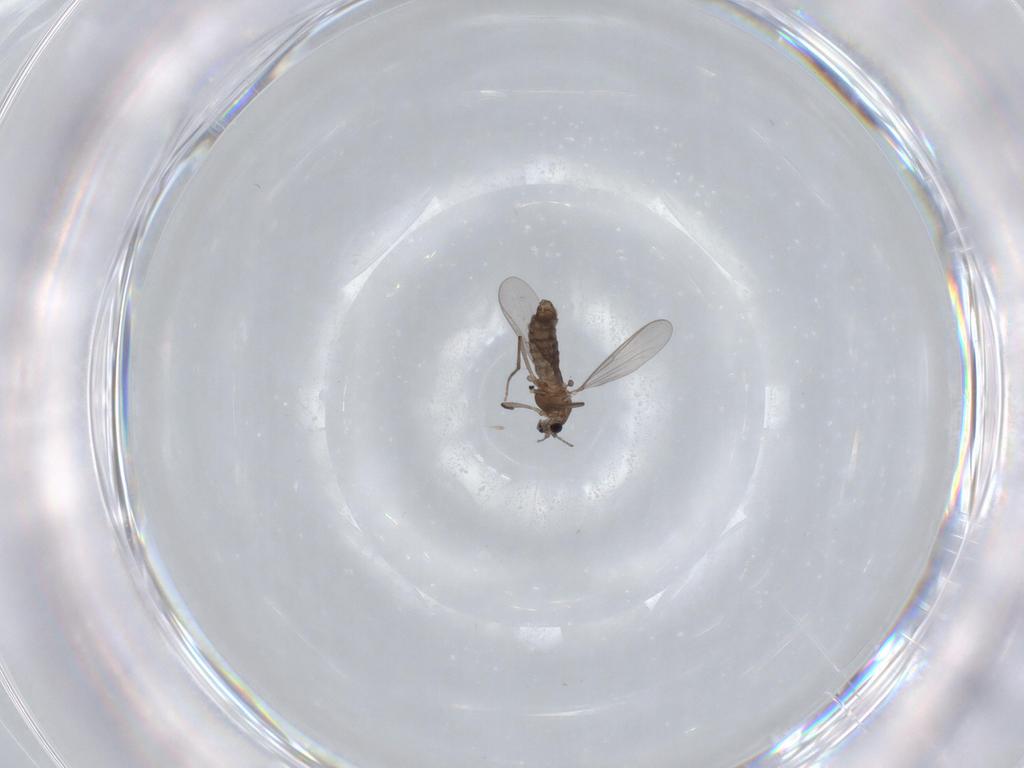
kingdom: Animalia
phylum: Arthropoda
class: Insecta
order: Diptera
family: Chironomidae
